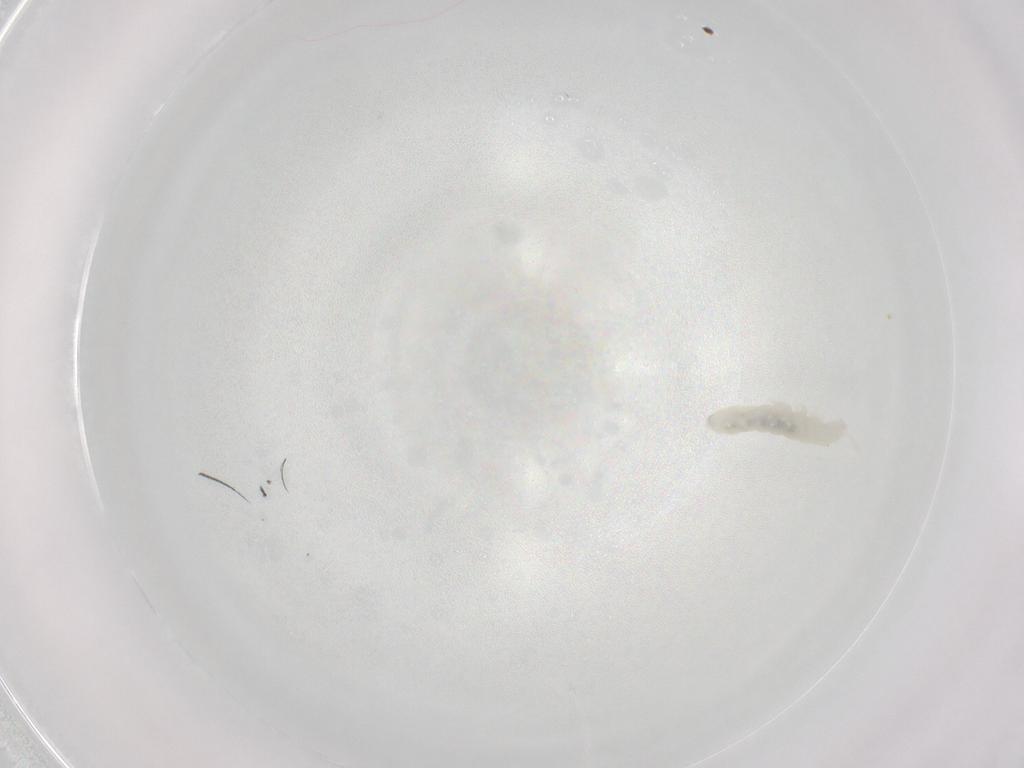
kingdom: Animalia
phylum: Arthropoda
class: Collembola
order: Poduromorpha
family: Onychiuridae
